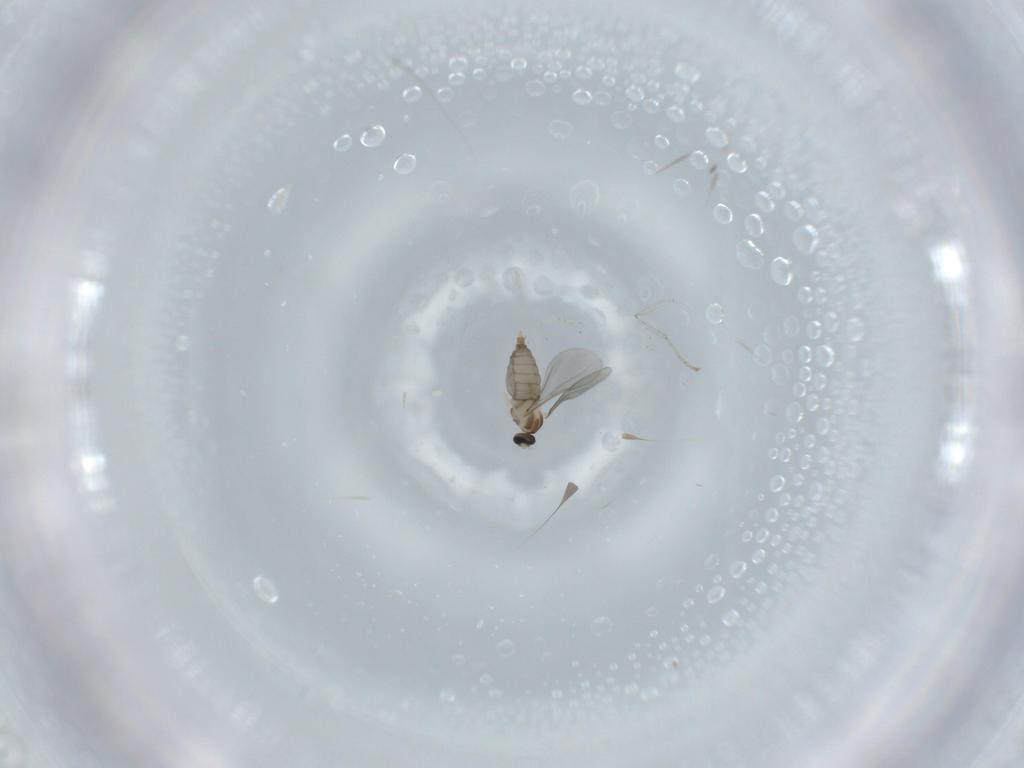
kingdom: Animalia
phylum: Arthropoda
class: Insecta
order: Diptera
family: Cecidomyiidae
